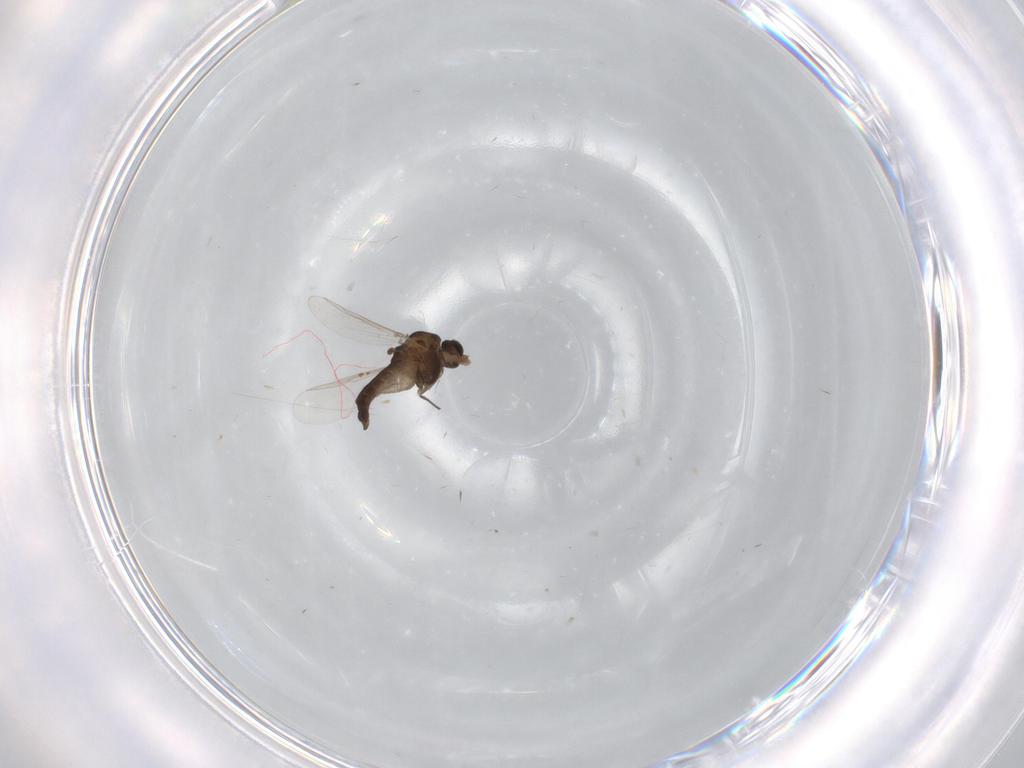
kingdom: Animalia
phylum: Arthropoda
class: Insecta
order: Diptera
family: Chironomidae
